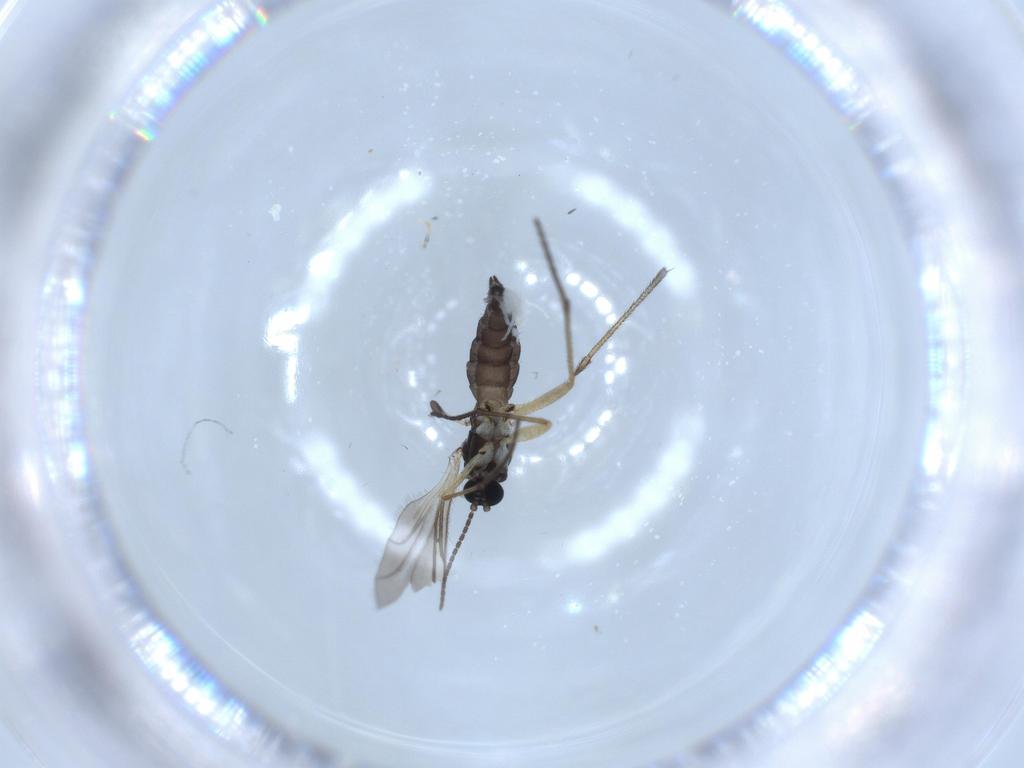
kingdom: Animalia
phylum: Arthropoda
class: Insecta
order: Diptera
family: Sciaridae
